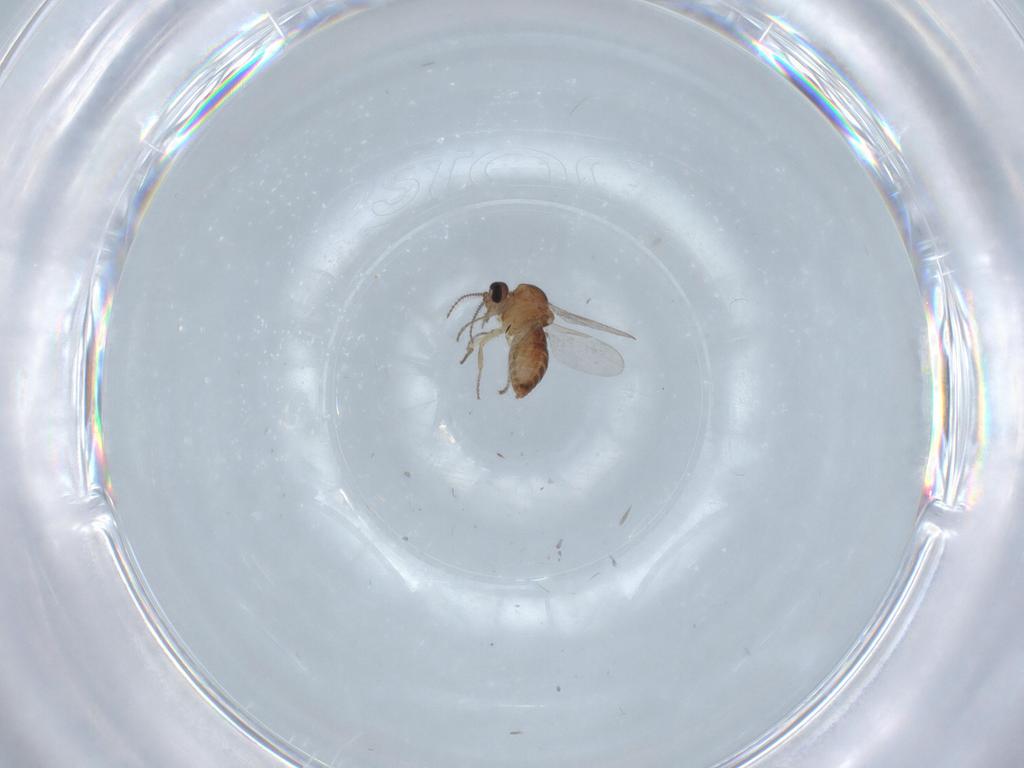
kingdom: Animalia
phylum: Arthropoda
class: Insecta
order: Diptera
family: Ceratopogonidae
